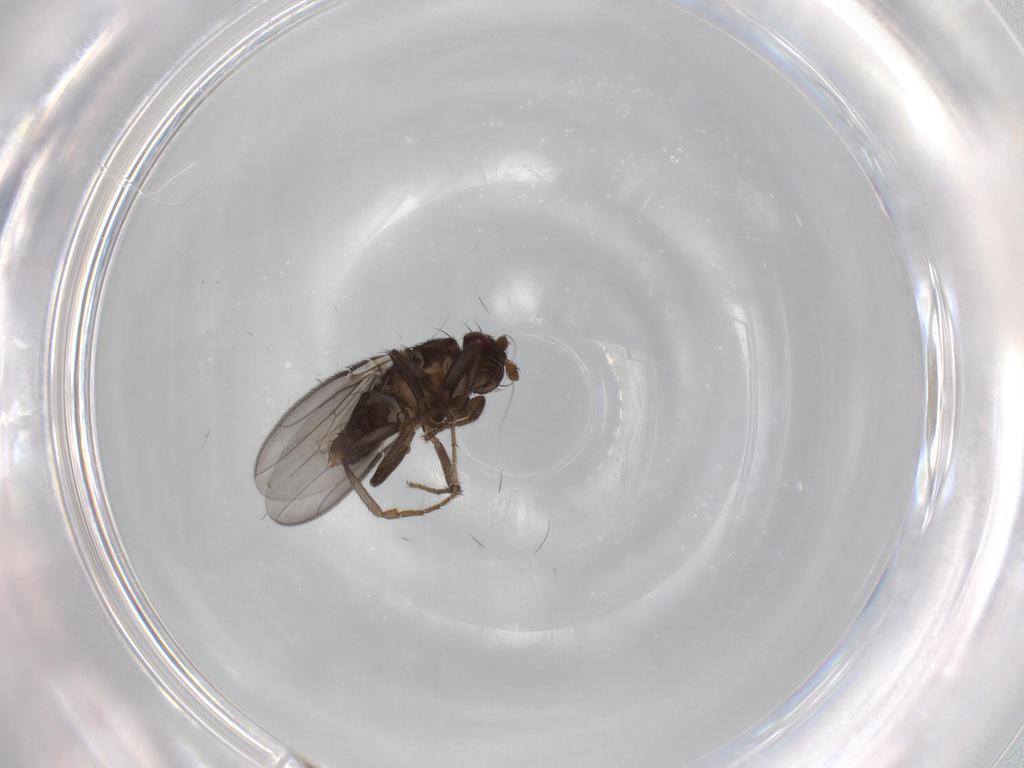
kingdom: Animalia
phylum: Arthropoda
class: Insecta
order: Diptera
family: Sphaeroceridae
